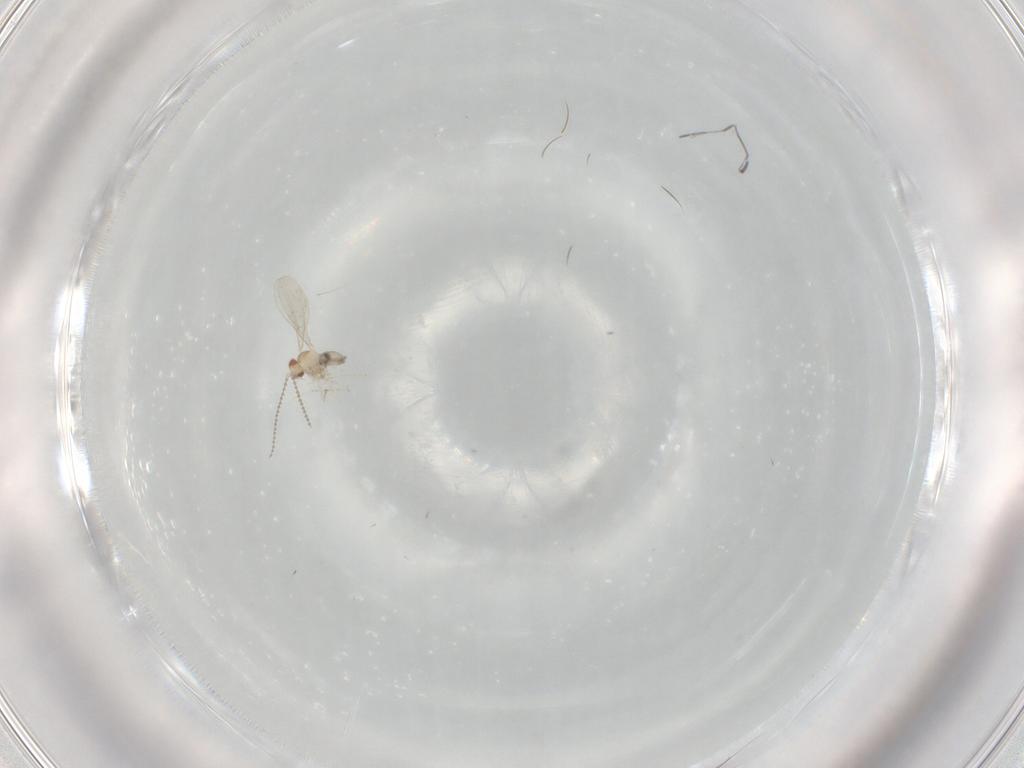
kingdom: Animalia
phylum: Arthropoda
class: Insecta
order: Diptera
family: Cecidomyiidae
